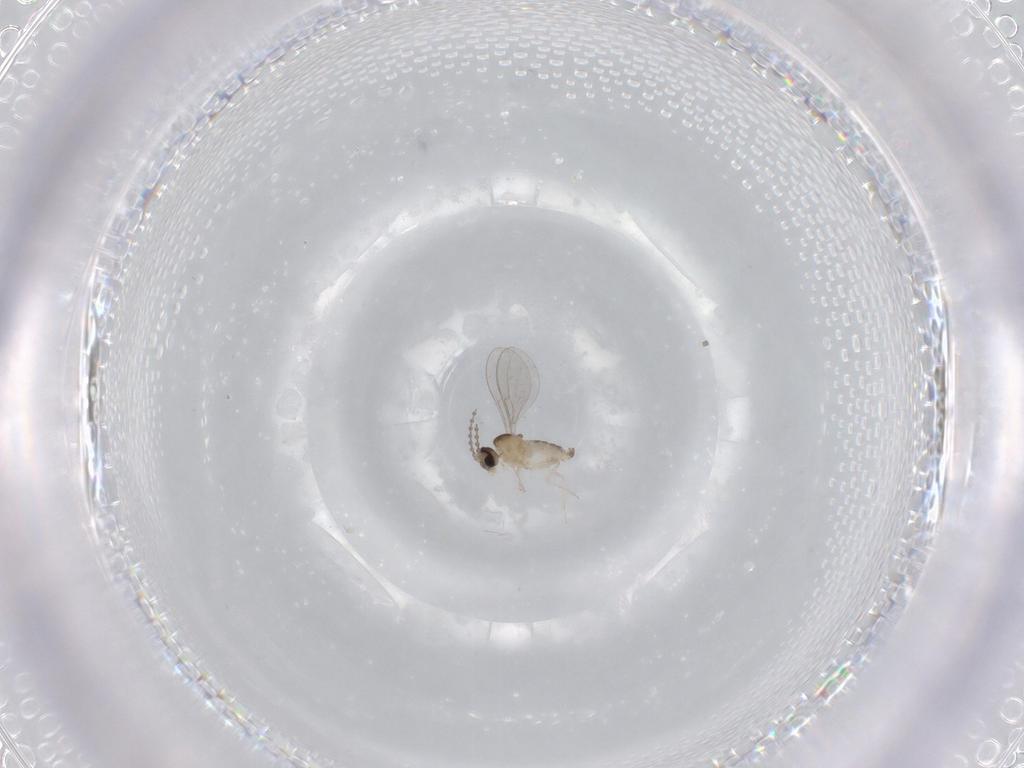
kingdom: Animalia
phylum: Arthropoda
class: Insecta
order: Diptera
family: Cecidomyiidae
